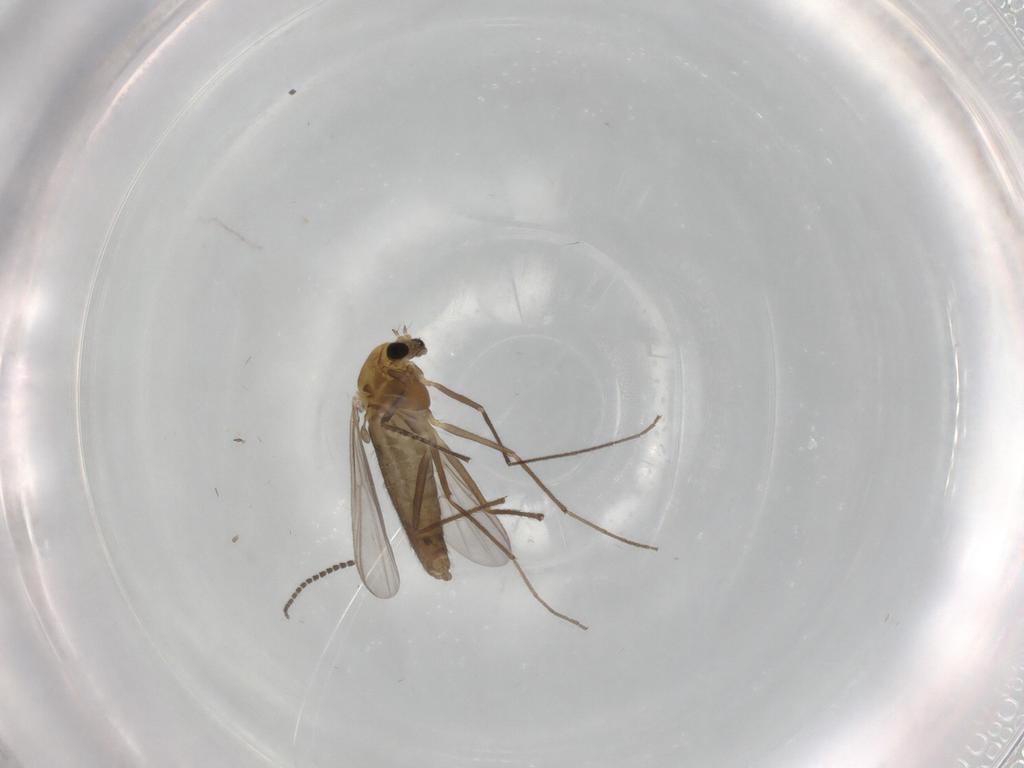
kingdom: Animalia
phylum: Arthropoda
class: Insecta
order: Diptera
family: Chironomidae
